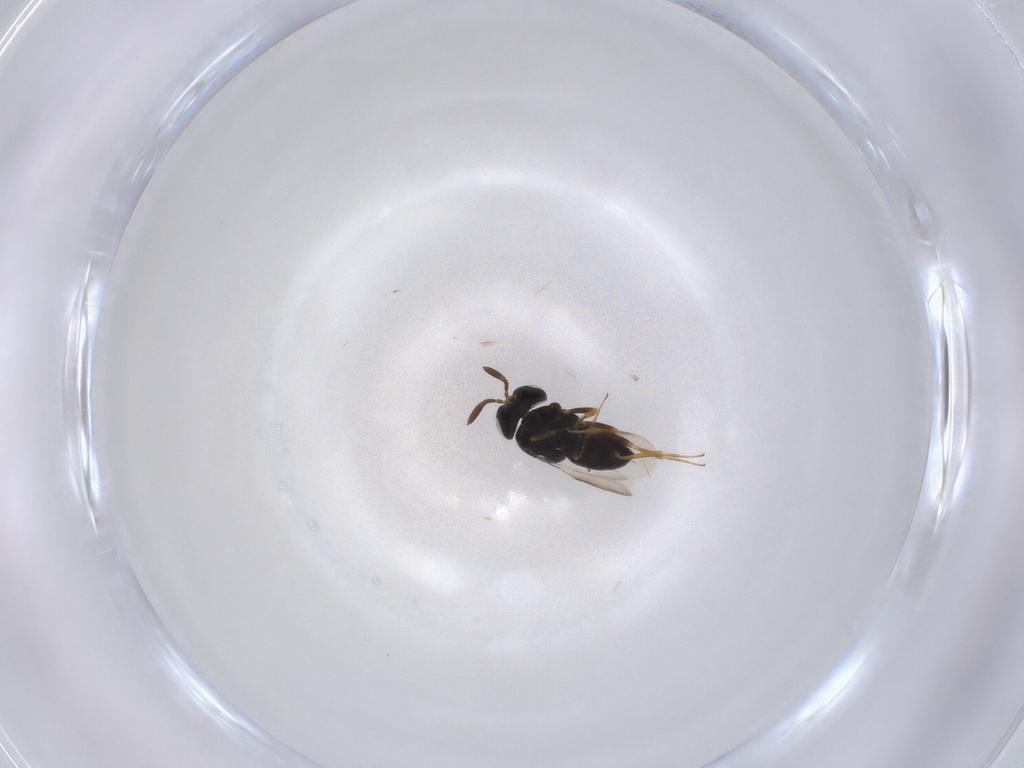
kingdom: Animalia
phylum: Arthropoda
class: Insecta
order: Hymenoptera
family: Scelionidae
